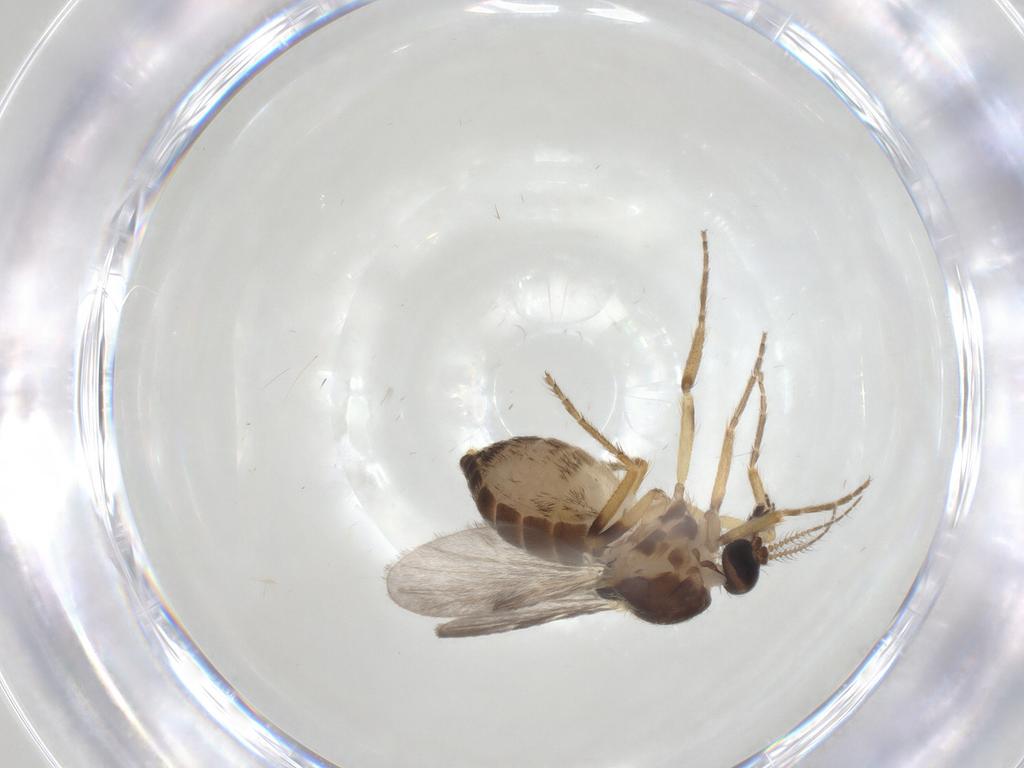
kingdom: Animalia
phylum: Arthropoda
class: Insecta
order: Diptera
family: Ceratopogonidae
